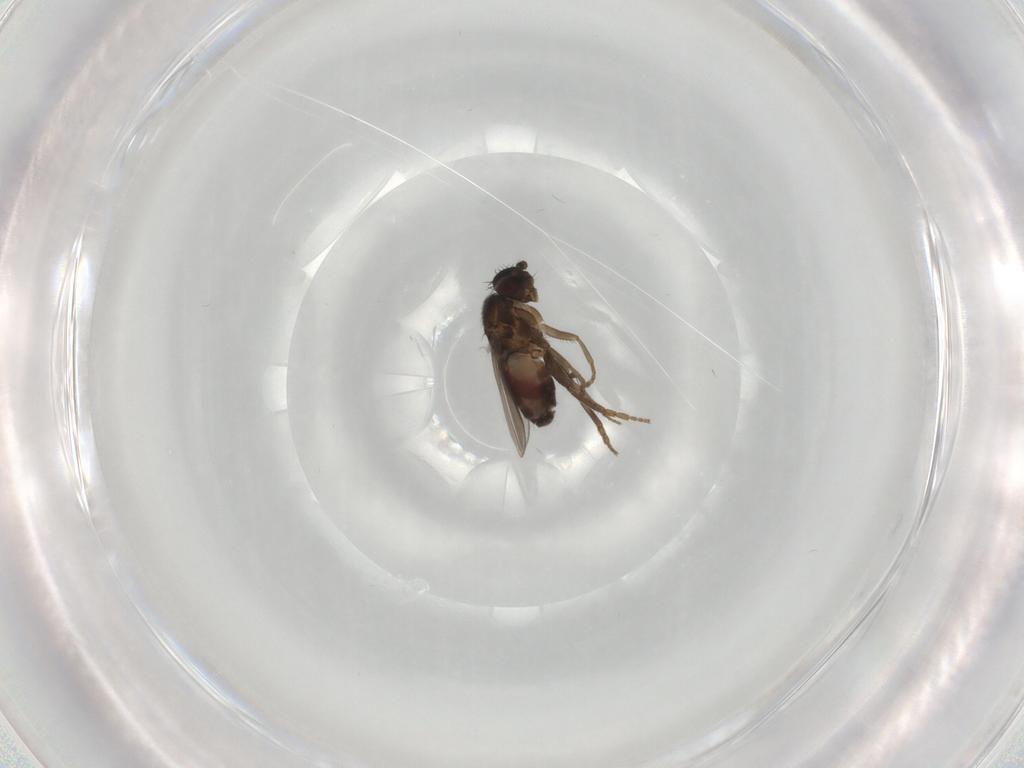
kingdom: Animalia
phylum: Arthropoda
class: Insecta
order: Diptera
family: Sphaeroceridae
